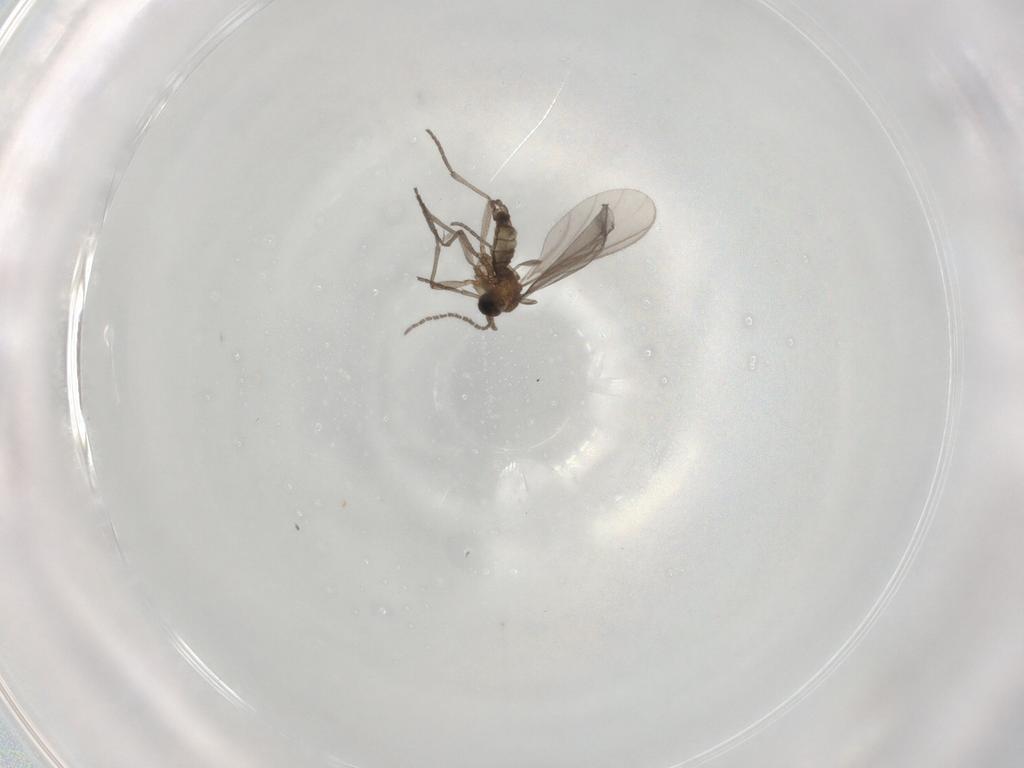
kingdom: Animalia
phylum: Arthropoda
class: Insecta
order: Diptera
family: Sciaridae
